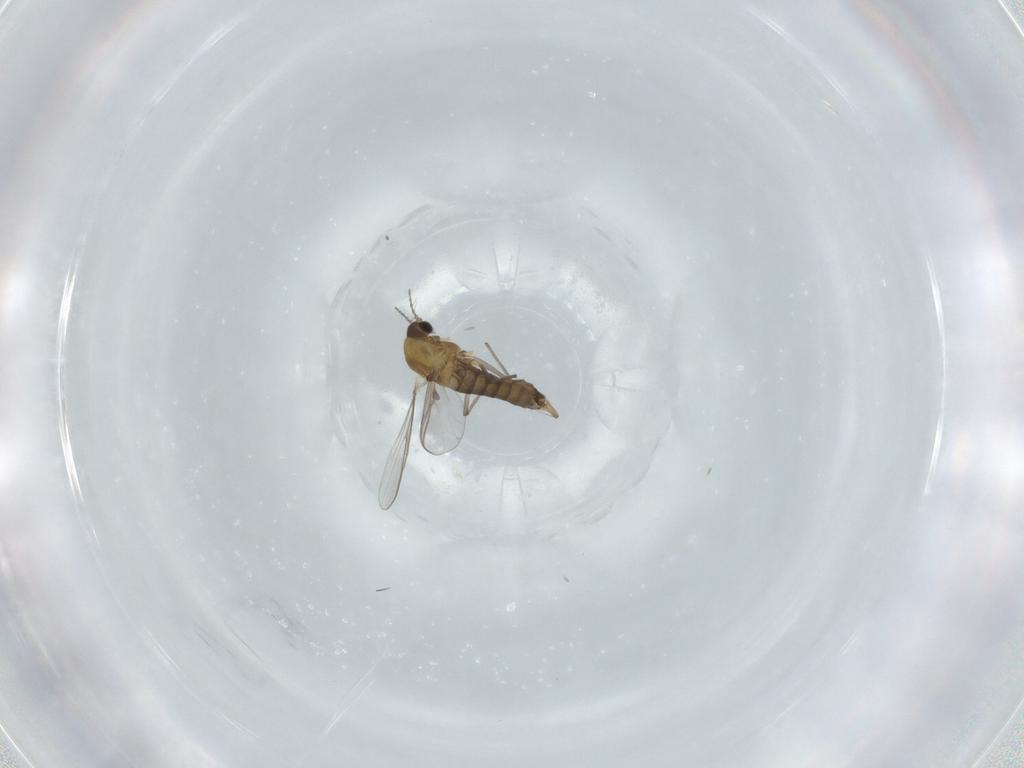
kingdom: Animalia
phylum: Arthropoda
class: Insecta
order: Diptera
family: Chironomidae
